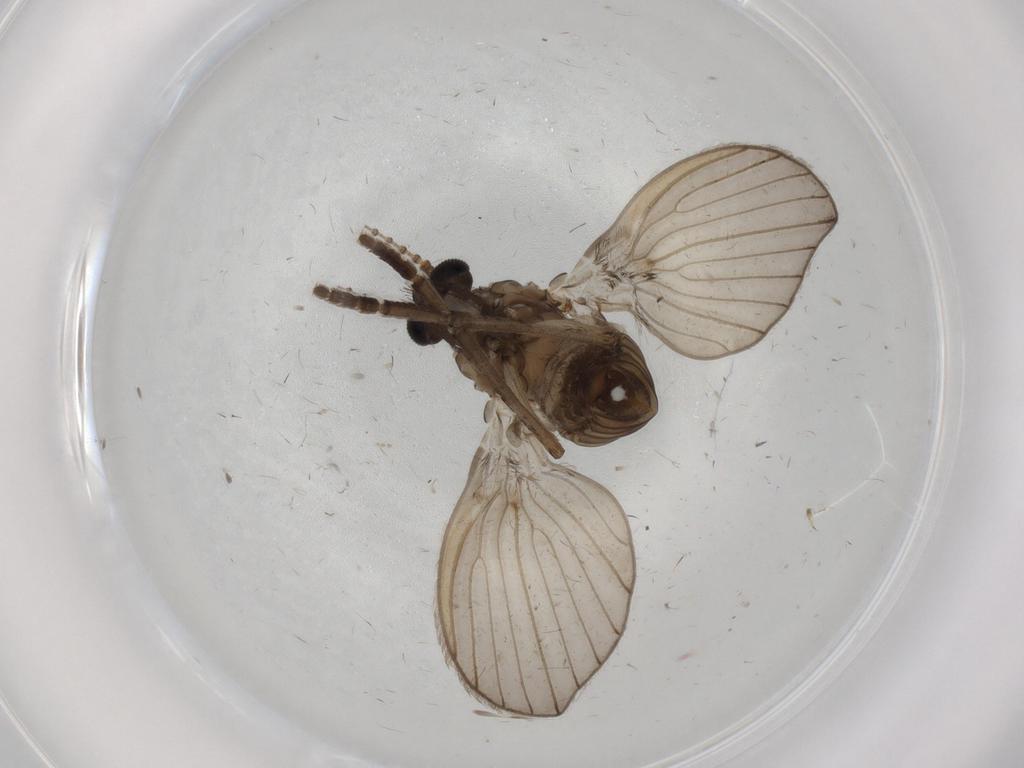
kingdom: Animalia
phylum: Arthropoda
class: Insecta
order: Diptera
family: Cecidomyiidae
